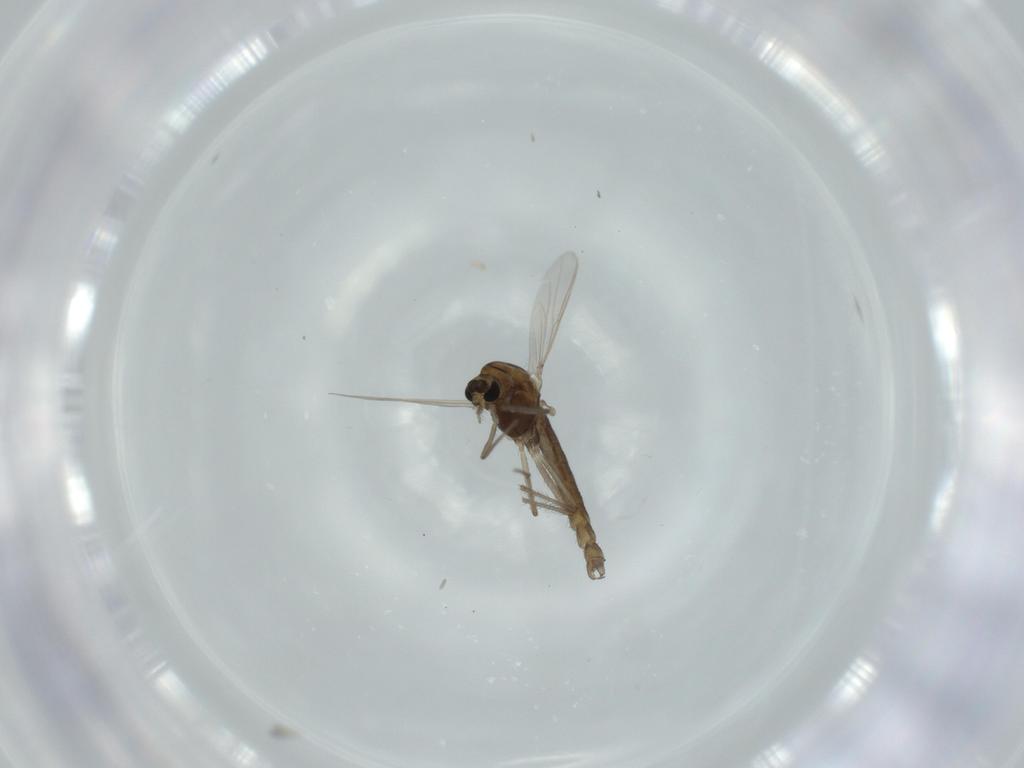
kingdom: Animalia
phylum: Arthropoda
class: Insecta
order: Diptera
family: Chironomidae
